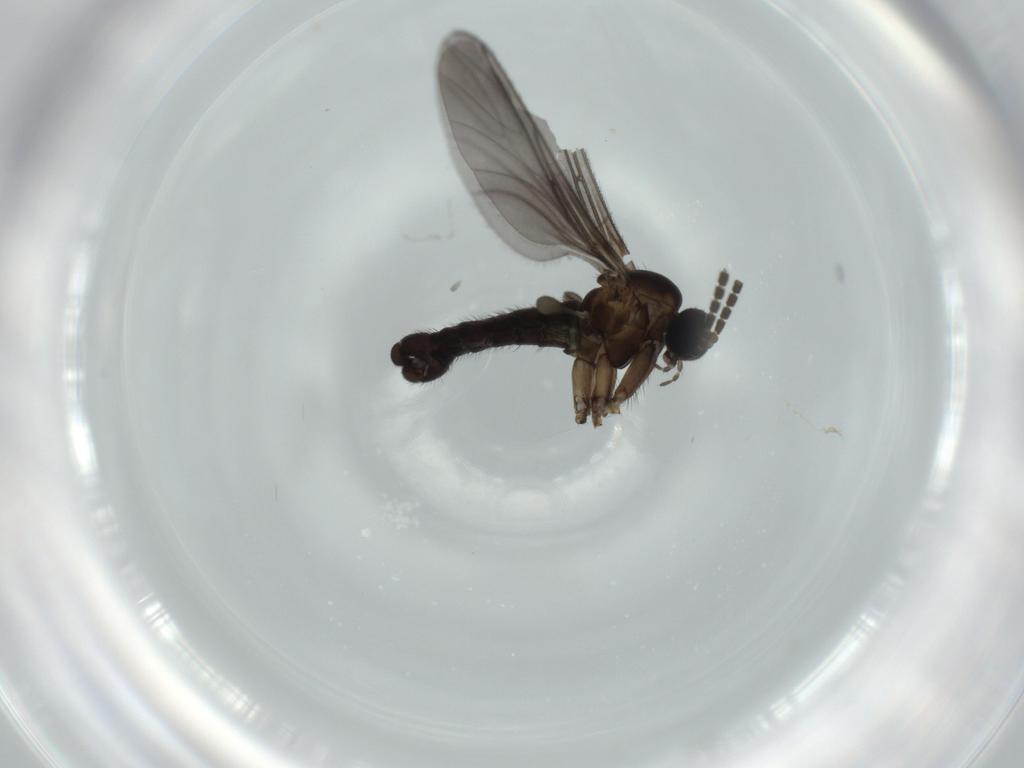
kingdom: Animalia
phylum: Arthropoda
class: Insecta
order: Diptera
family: Sciaridae
